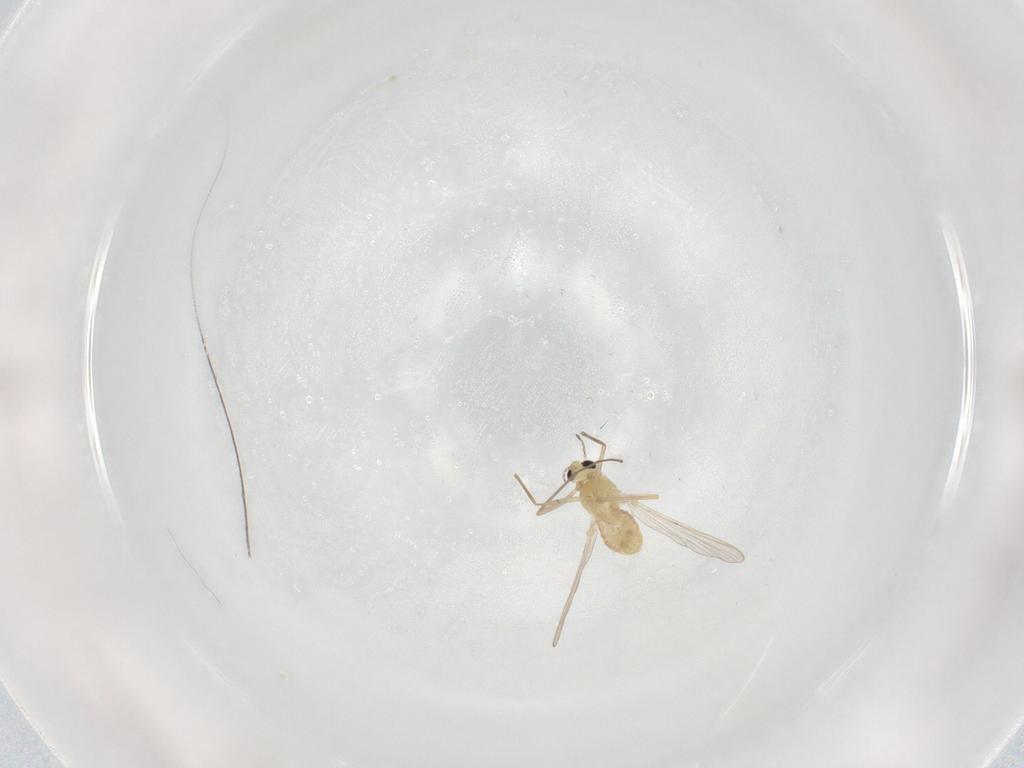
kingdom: Animalia
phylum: Arthropoda
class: Insecta
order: Diptera
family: Chironomidae
